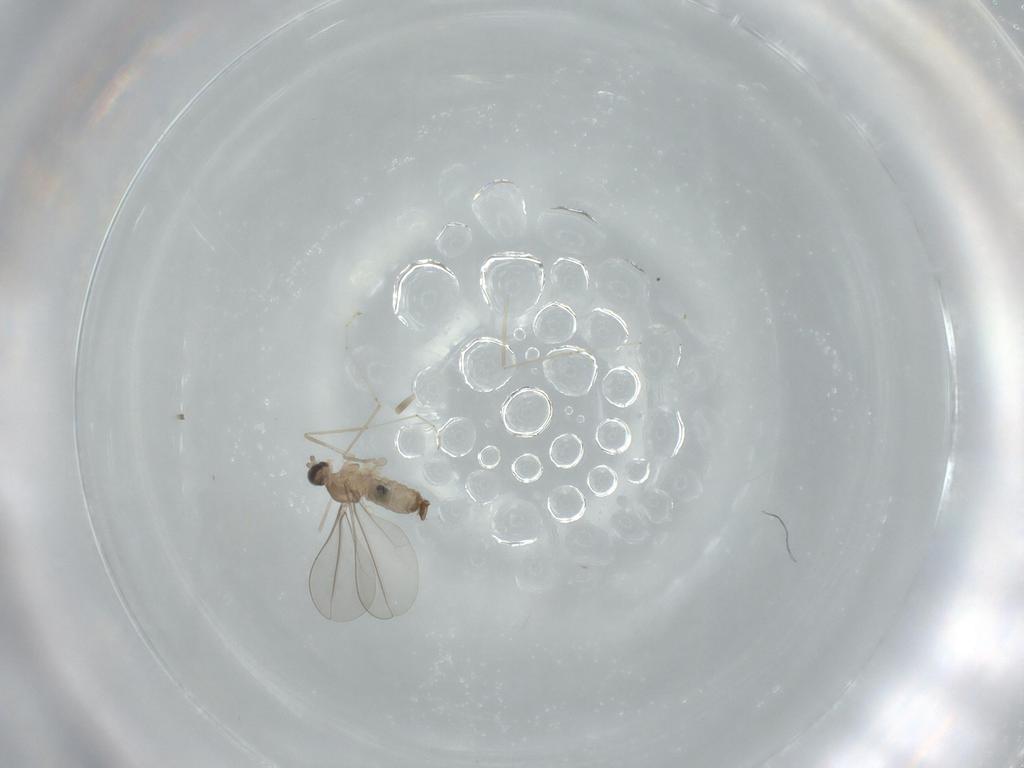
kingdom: Animalia
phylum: Arthropoda
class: Insecta
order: Diptera
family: Cecidomyiidae
